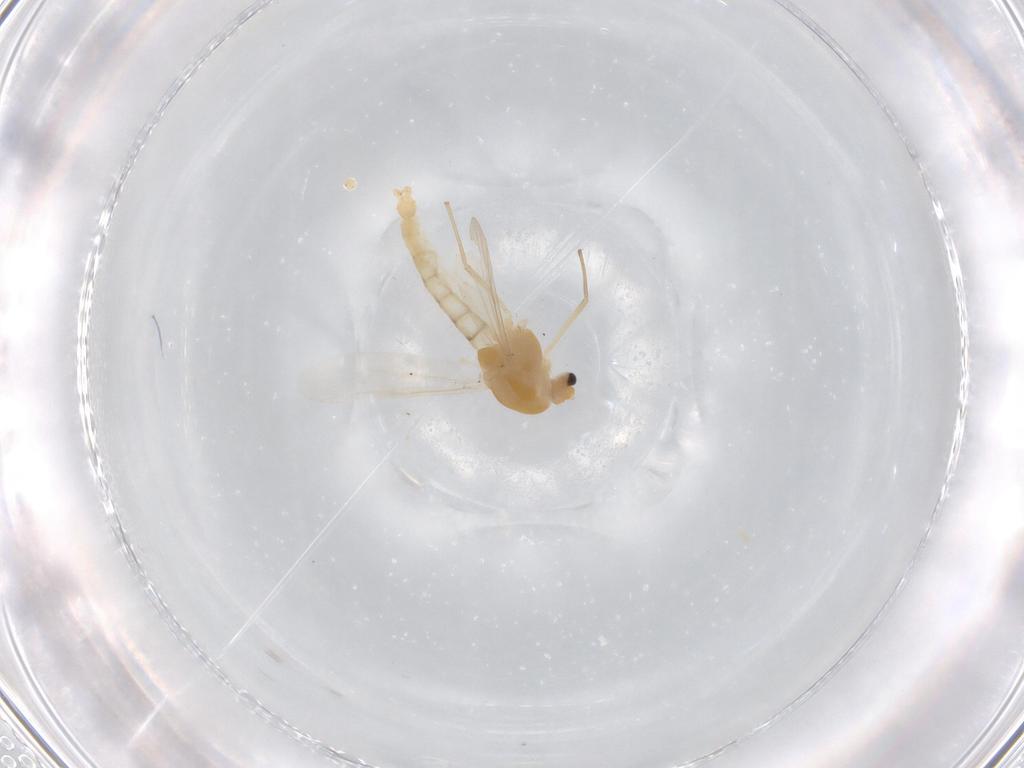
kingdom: Animalia
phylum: Arthropoda
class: Insecta
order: Diptera
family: Chironomidae
